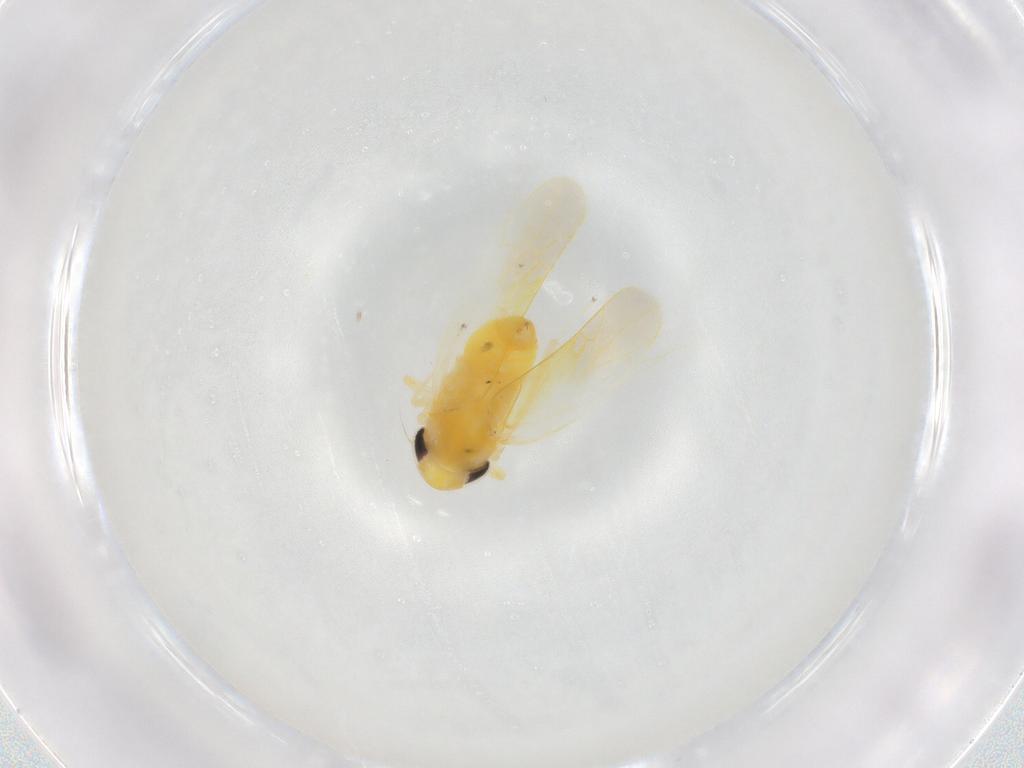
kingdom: Animalia
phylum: Arthropoda
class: Insecta
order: Hemiptera
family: Cicadellidae
